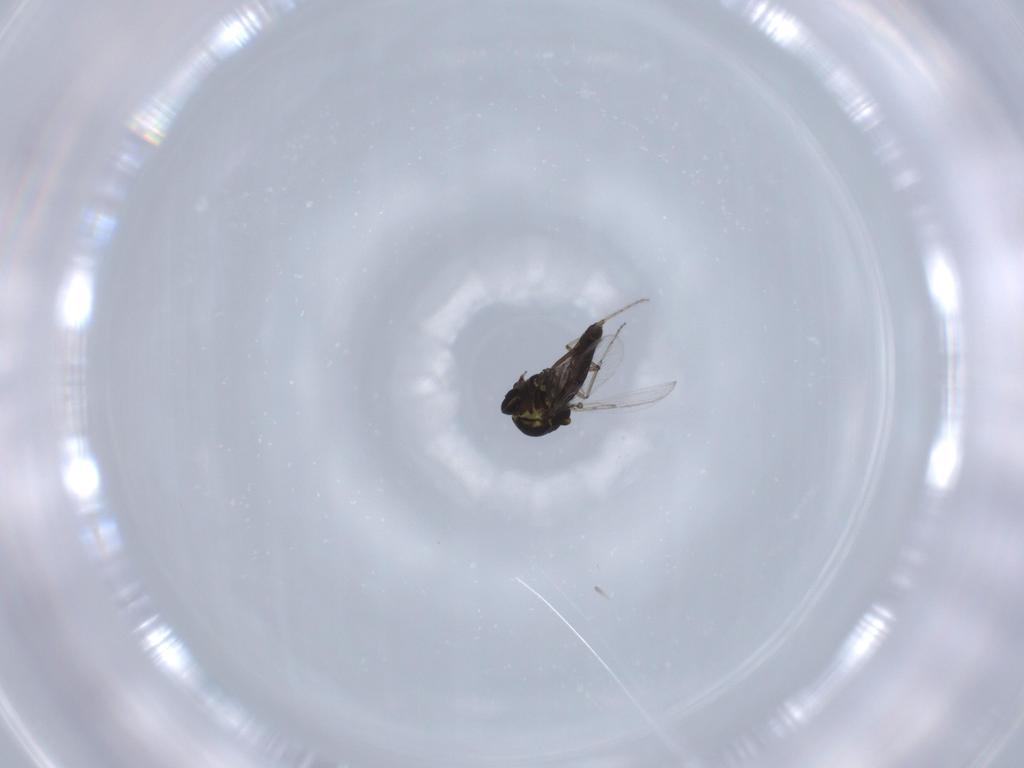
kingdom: Animalia
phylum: Arthropoda
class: Insecta
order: Diptera
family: Ceratopogonidae
